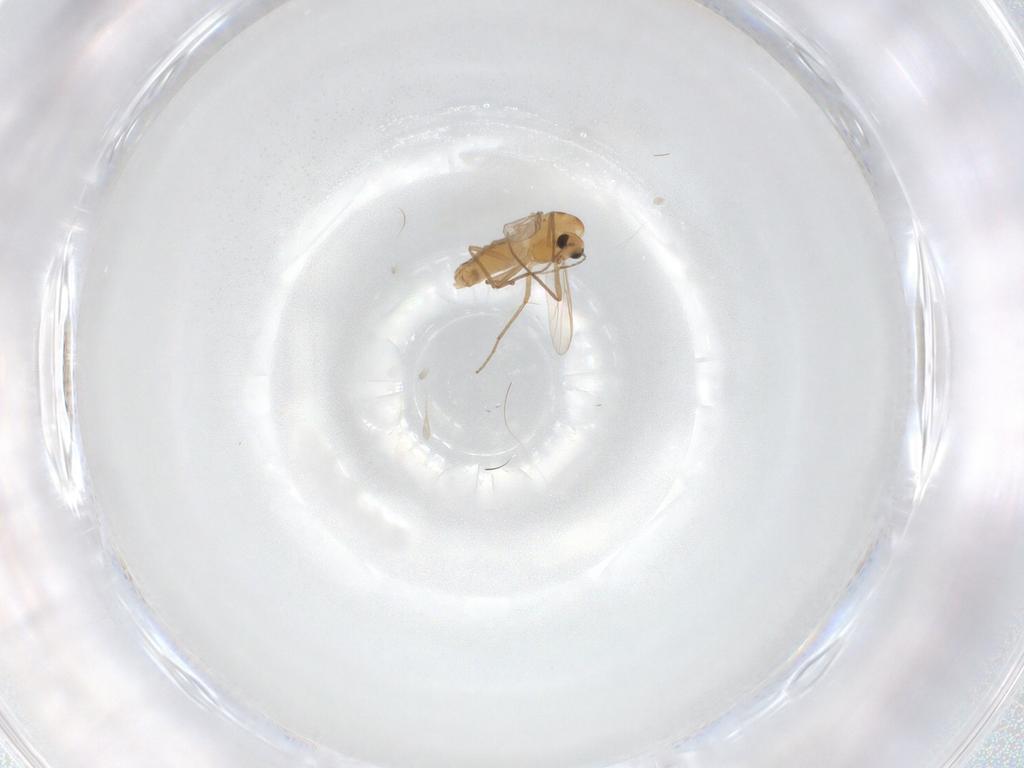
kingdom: Animalia
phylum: Arthropoda
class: Insecta
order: Diptera
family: Chironomidae
